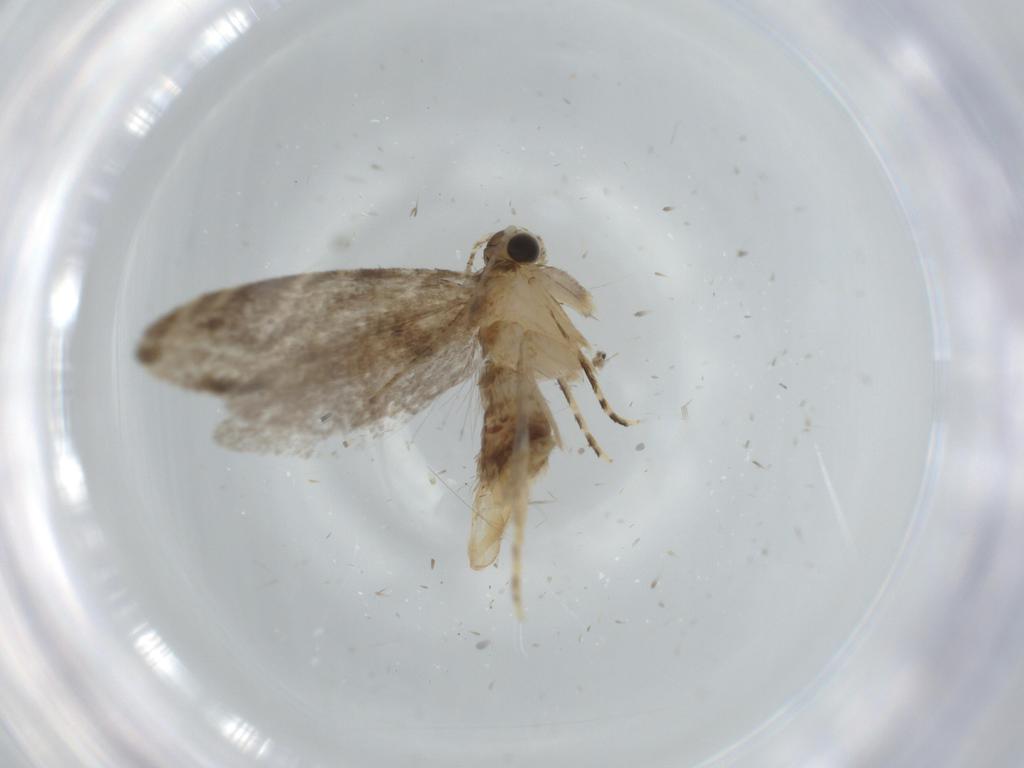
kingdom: Animalia
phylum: Arthropoda
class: Insecta
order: Lepidoptera
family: Tineidae
